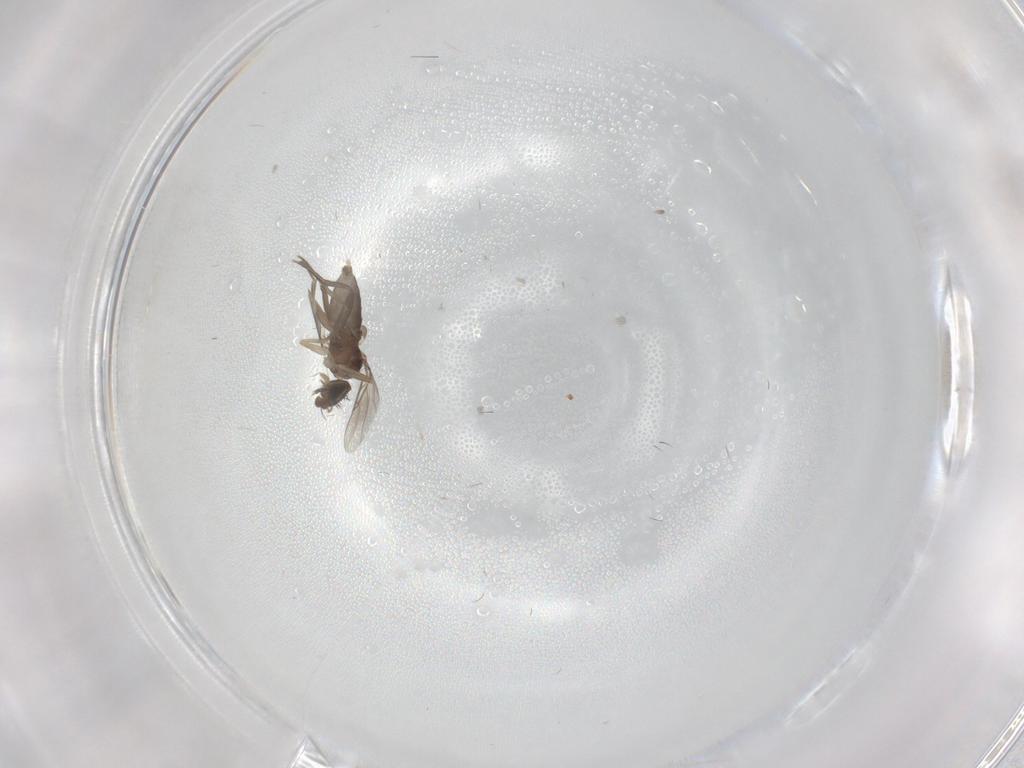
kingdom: Animalia
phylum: Arthropoda
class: Insecta
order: Diptera
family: Phoridae
